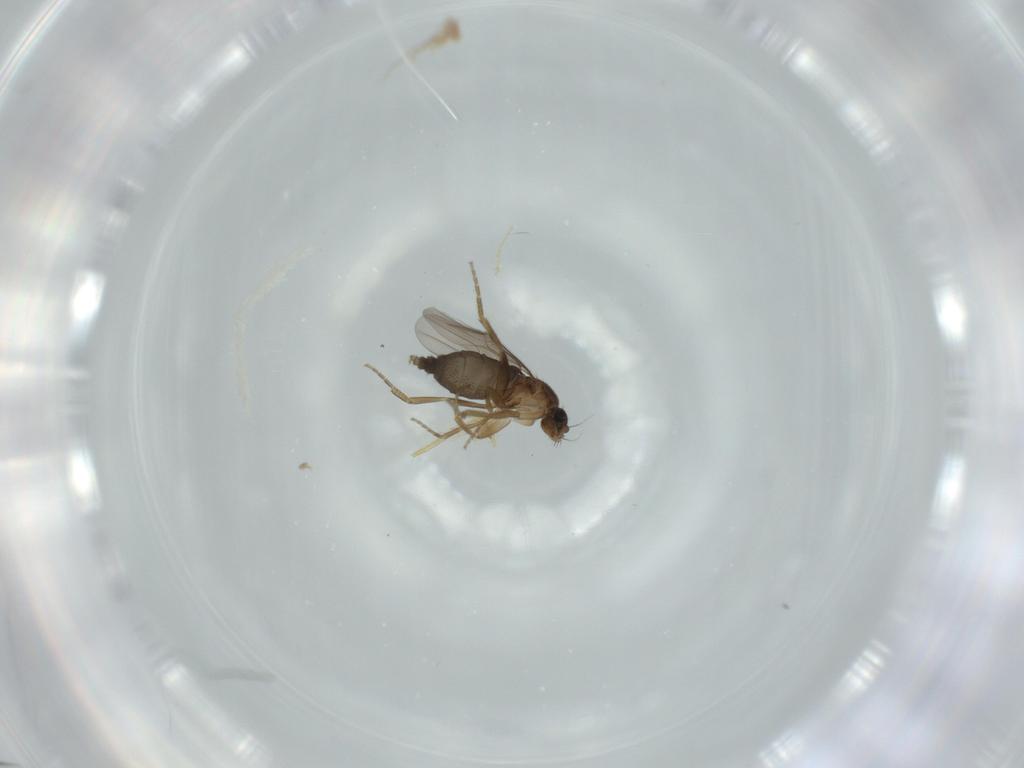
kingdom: Animalia
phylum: Arthropoda
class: Insecta
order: Diptera
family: Phoridae
